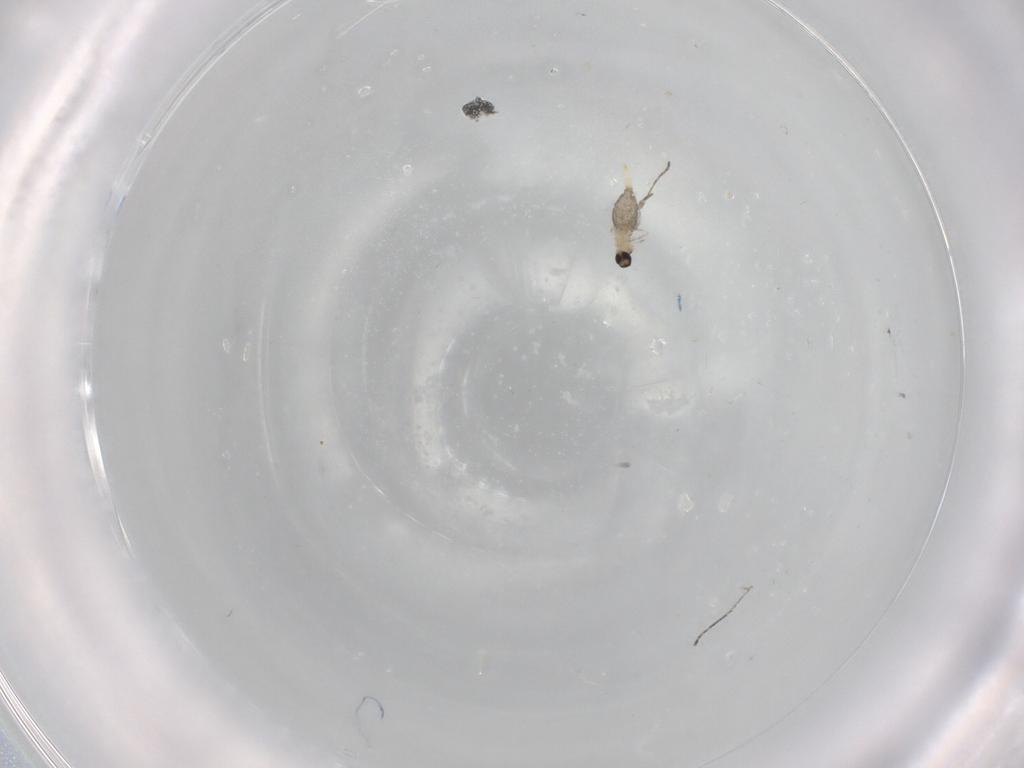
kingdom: Animalia
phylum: Arthropoda
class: Insecta
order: Diptera
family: Cecidomyiidae
